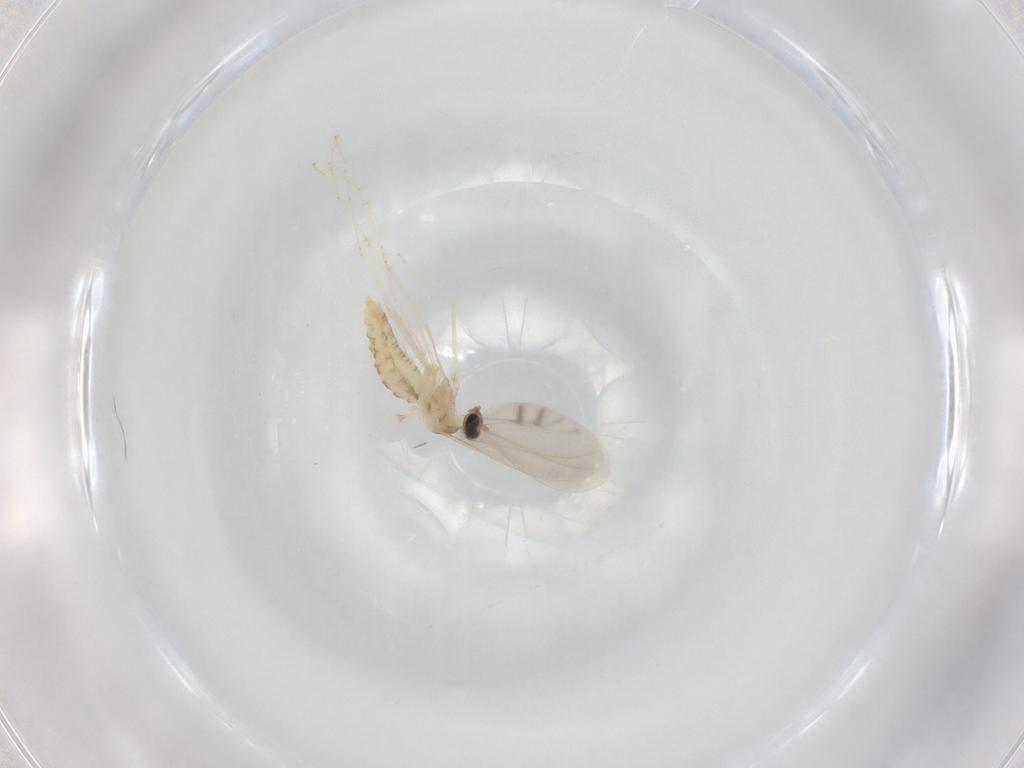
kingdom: Animalia
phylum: Arthropoda
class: Insecta
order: Diptera
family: Cecidomyiidae
